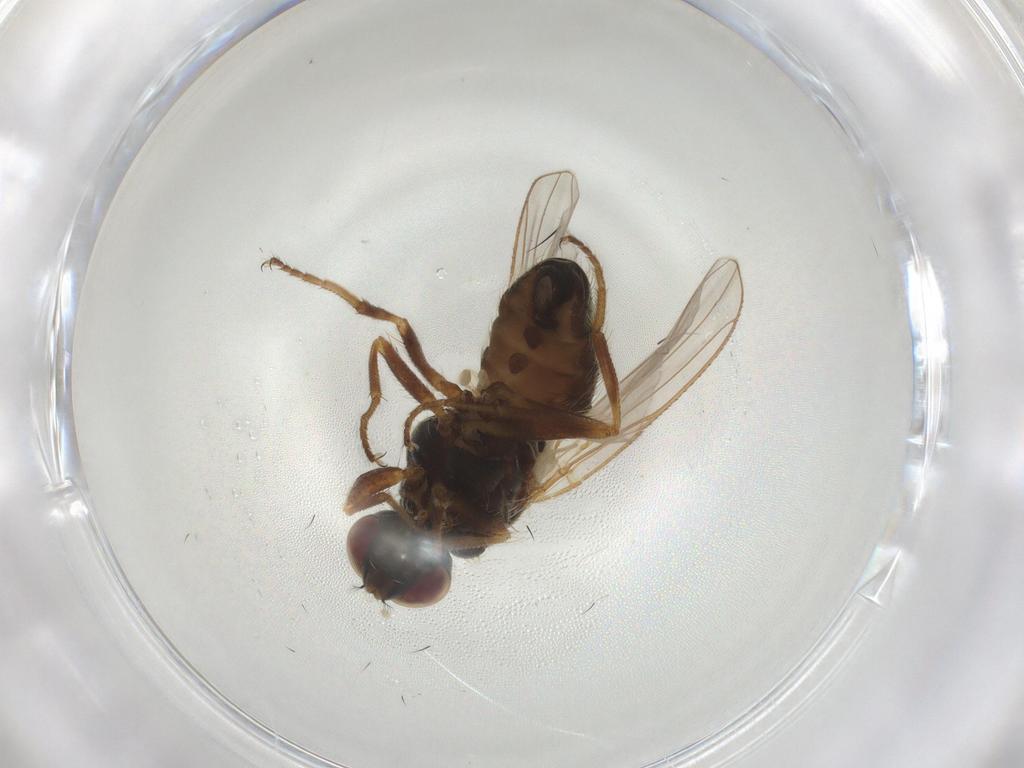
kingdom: Animalia
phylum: Arthropoda
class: Insecta
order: Diptera
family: Muscidae
